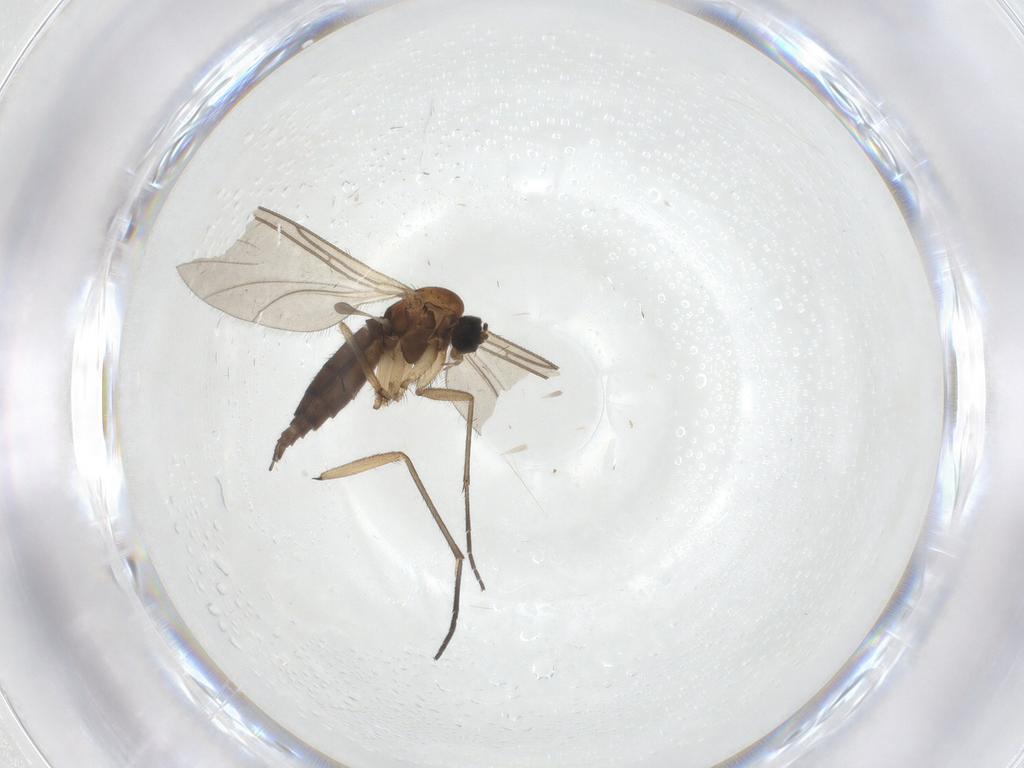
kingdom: Animalia
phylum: Arthropoda
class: Insecta
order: Diptera
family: Sciaridae
